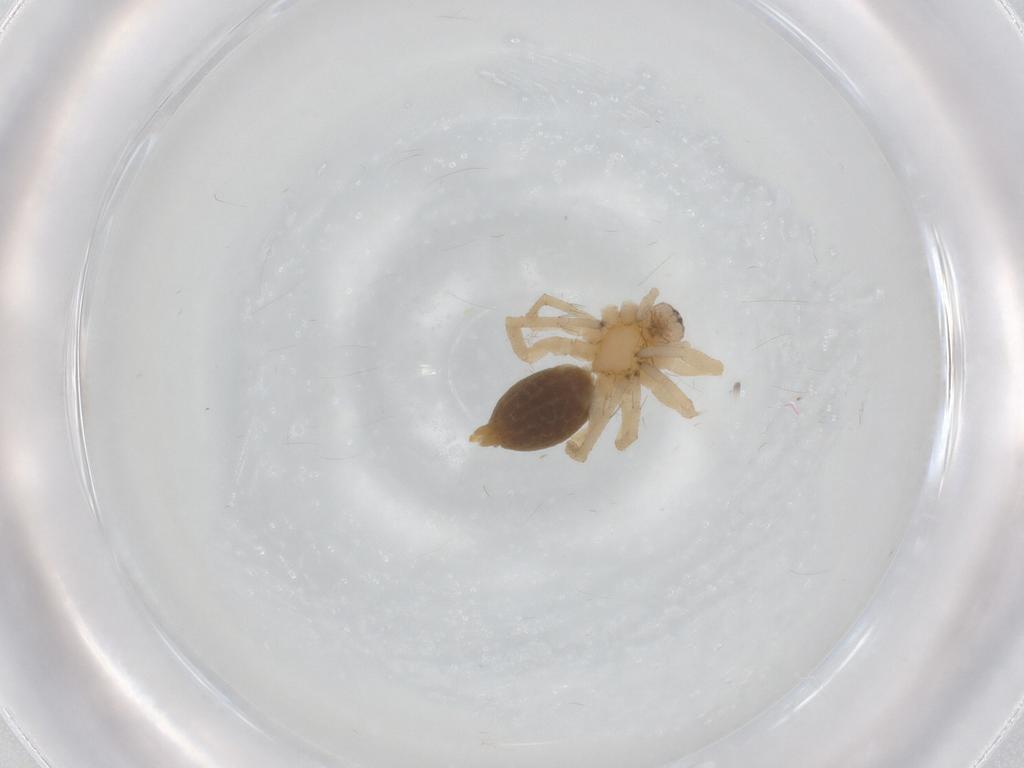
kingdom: Animalia
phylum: Arthropoda
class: Arachnida
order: Araneae
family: Clubionidae
